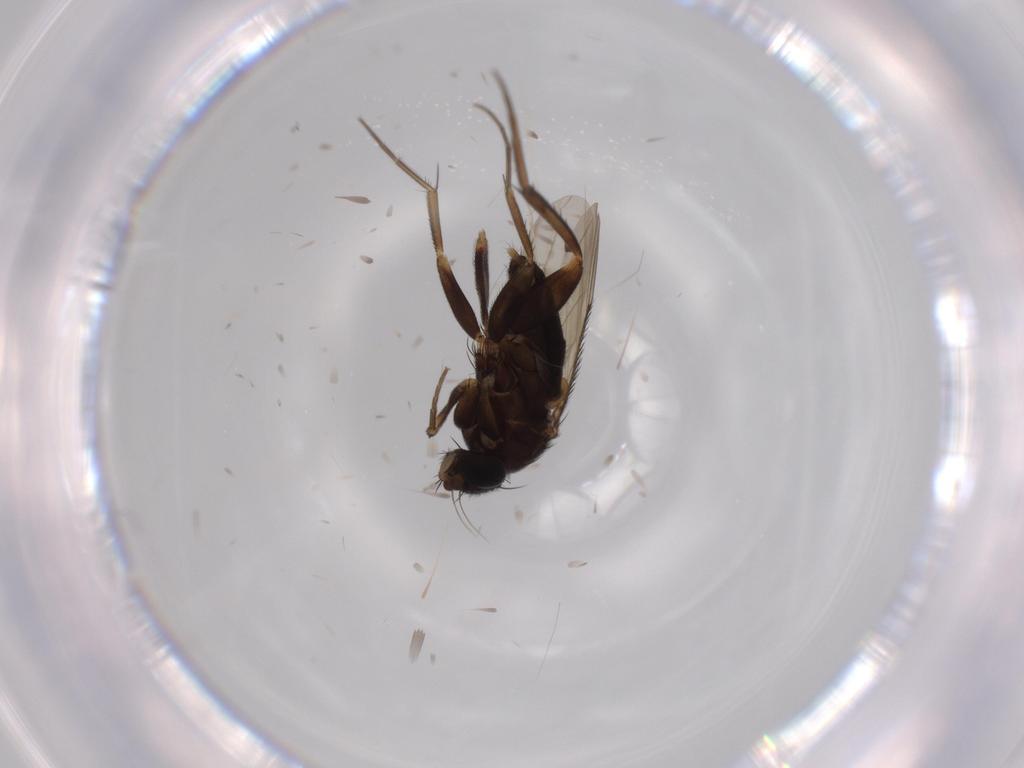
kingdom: Animalia
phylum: Arthropoda
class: Insecta
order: Diptera
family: Phoridae
